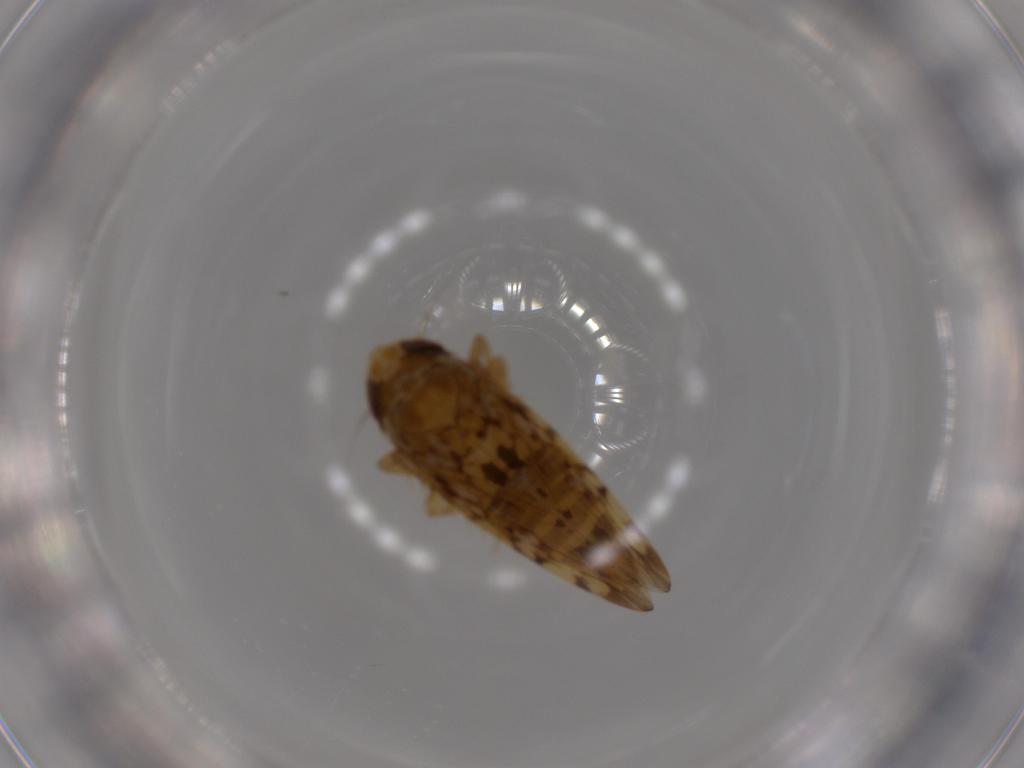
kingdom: Animalia
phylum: Arthropoda
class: Insecta
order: Hemiptera
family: Cicadellidae
